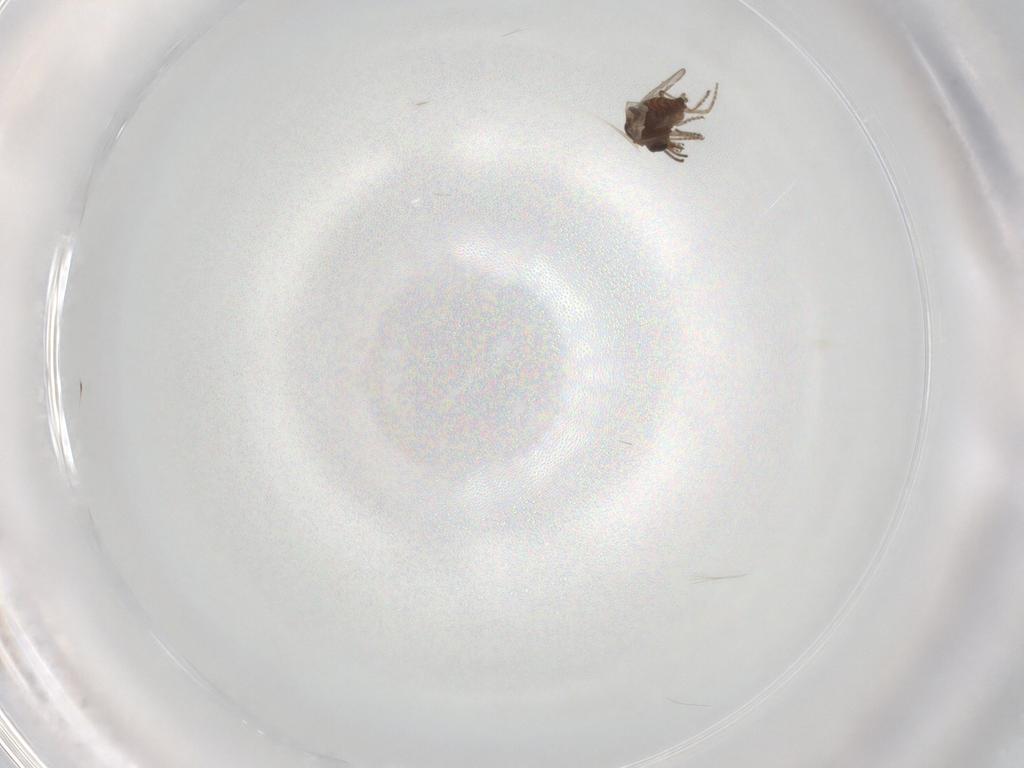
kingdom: Animalia
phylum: Arthropoda
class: Insecta
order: Diptera
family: Ceratopogonidae
